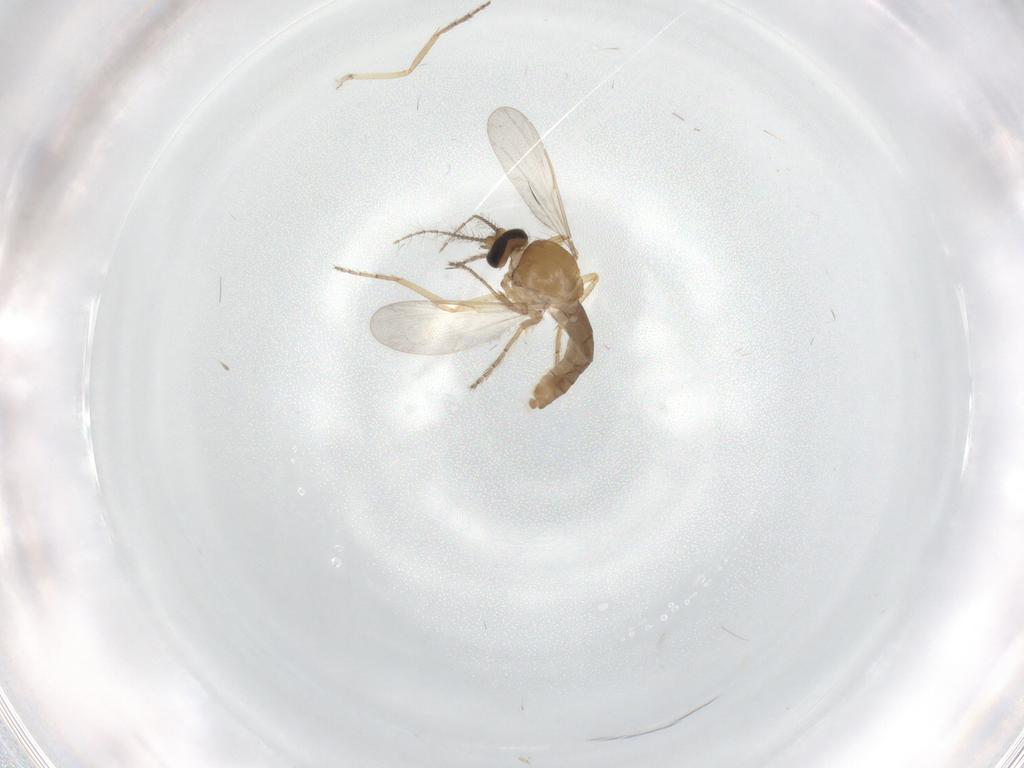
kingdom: Animalia
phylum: Arthropoda
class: Insecta
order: Diptera
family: Ceratopogonidae
